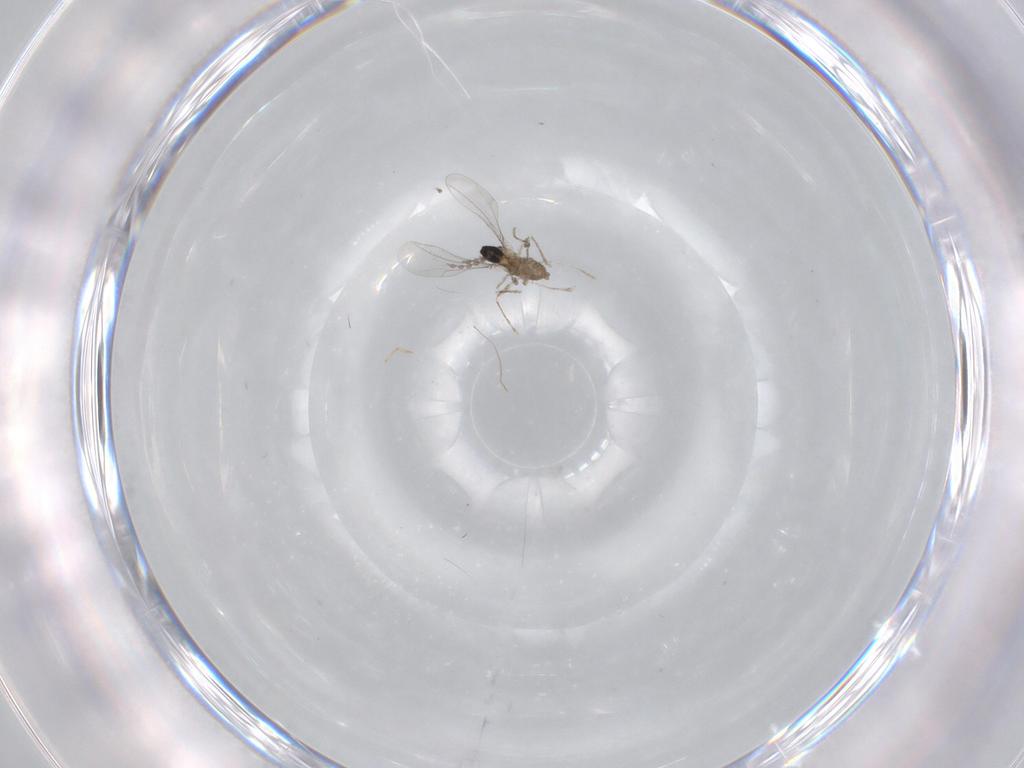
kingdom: Animalia
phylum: Arthropoda
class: Insecta
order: Diptera
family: Cecidomyiidae
